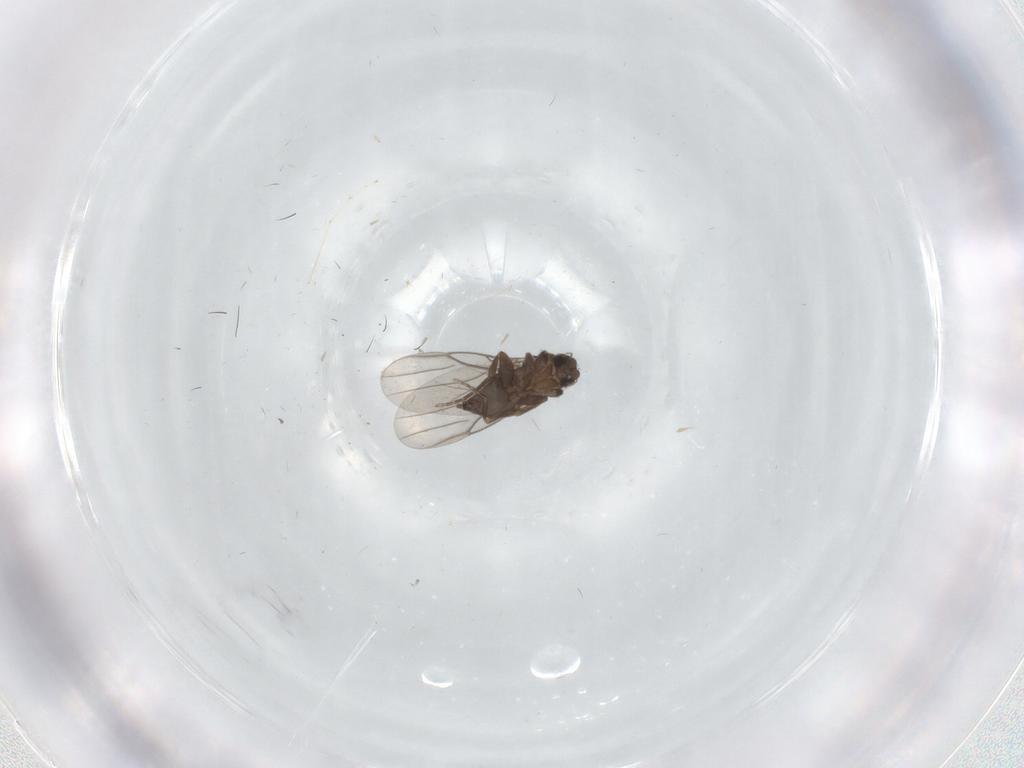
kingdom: Animalia
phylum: Arthropoda
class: Insecta
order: Diptera
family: Cecidomyiidae
